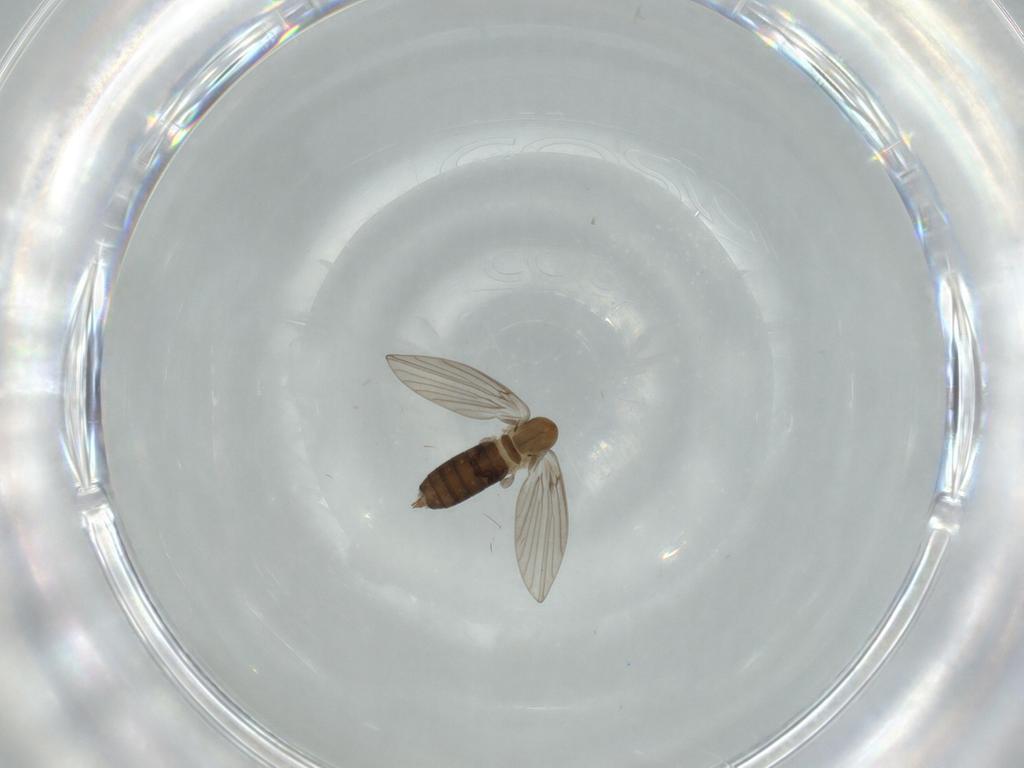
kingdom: Animalia
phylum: Arthropoda
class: Insecta
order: Diptera
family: Psychodidae
